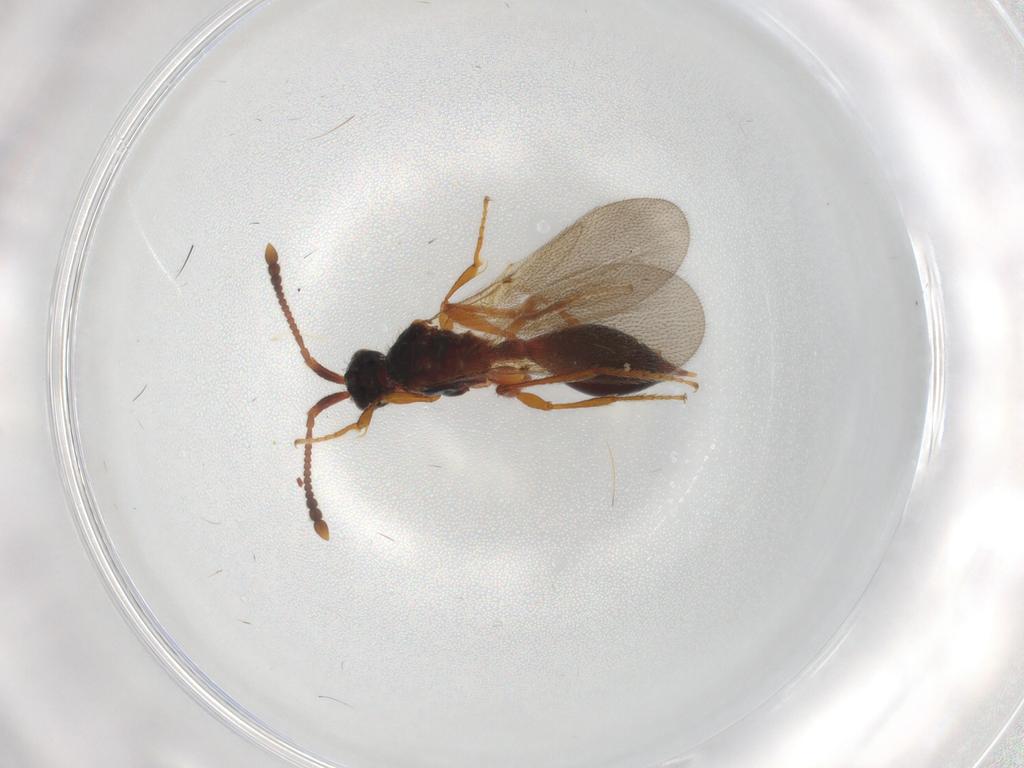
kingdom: Animalia
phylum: Arthropoda
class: Insecta
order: Hymenoptera
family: Diapriidae
